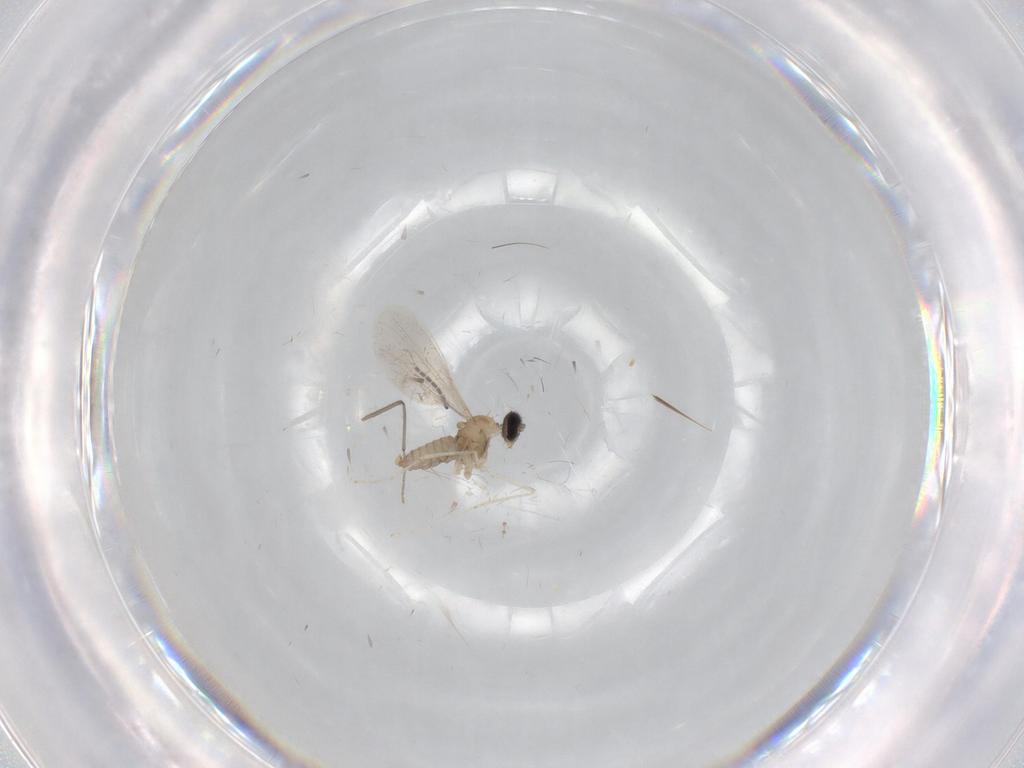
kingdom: Animalia
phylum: Arthropoda
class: Insecta
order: Diptera
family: Cecidomyiidae
